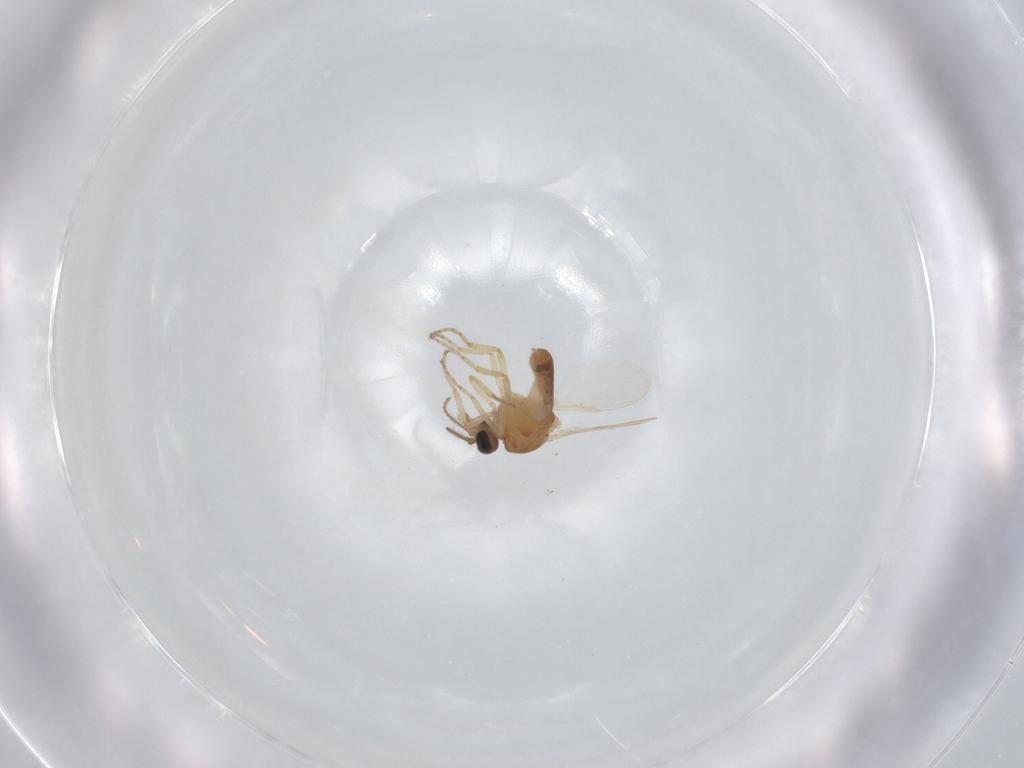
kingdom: Animalia
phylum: Arthropoda
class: Insecta
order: Diptera
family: Ceratopogonidae
